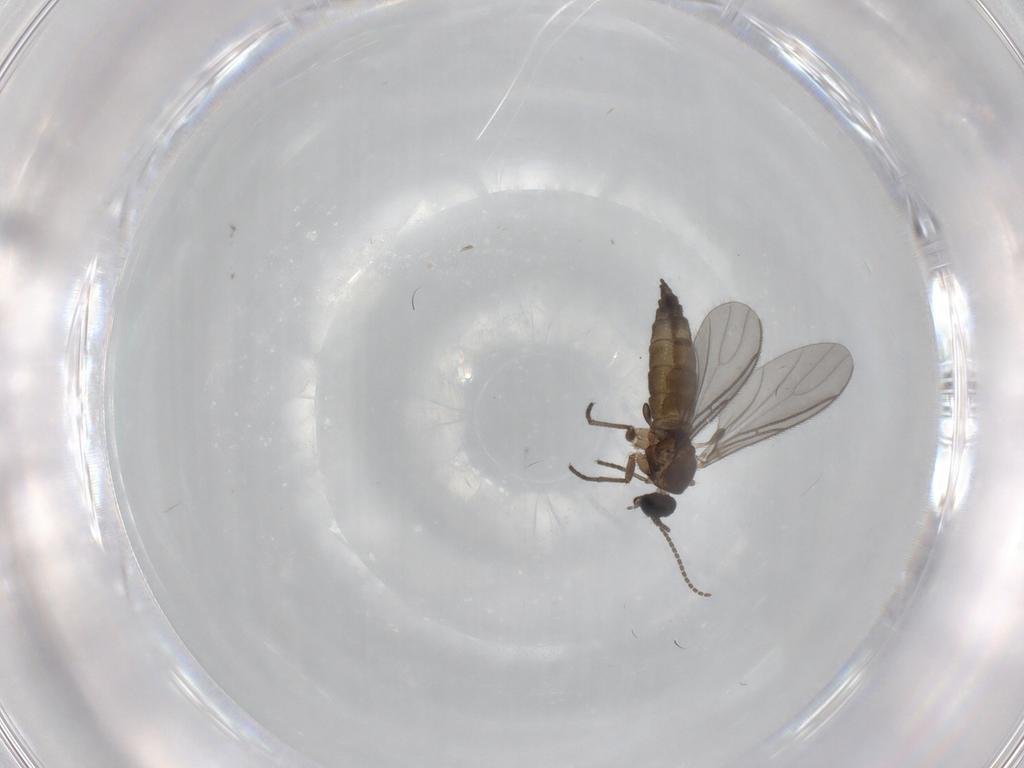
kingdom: Animalia
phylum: Arthropoda
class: Insecta
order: Diptera
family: Sciaridae
